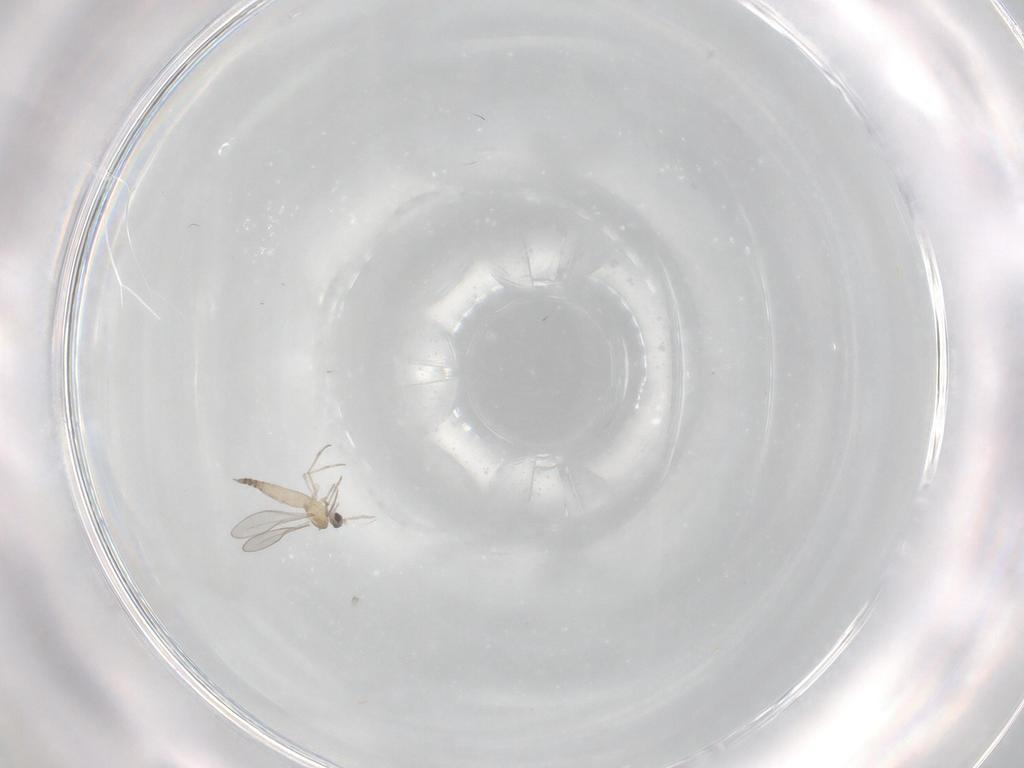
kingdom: Animalia
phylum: Arthropoda
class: Insecta
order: Diptera
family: Cecidomyiidae
